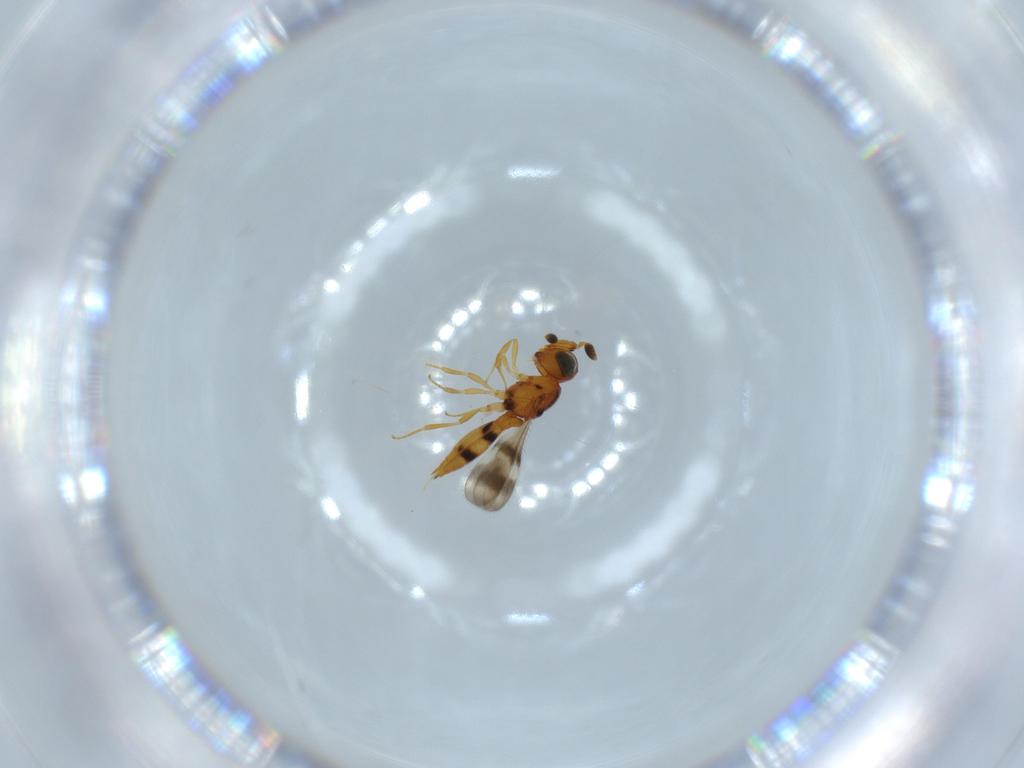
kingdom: Animalia
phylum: Arthropoda
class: Insecta
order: Hymenoptera
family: Scelionidae
